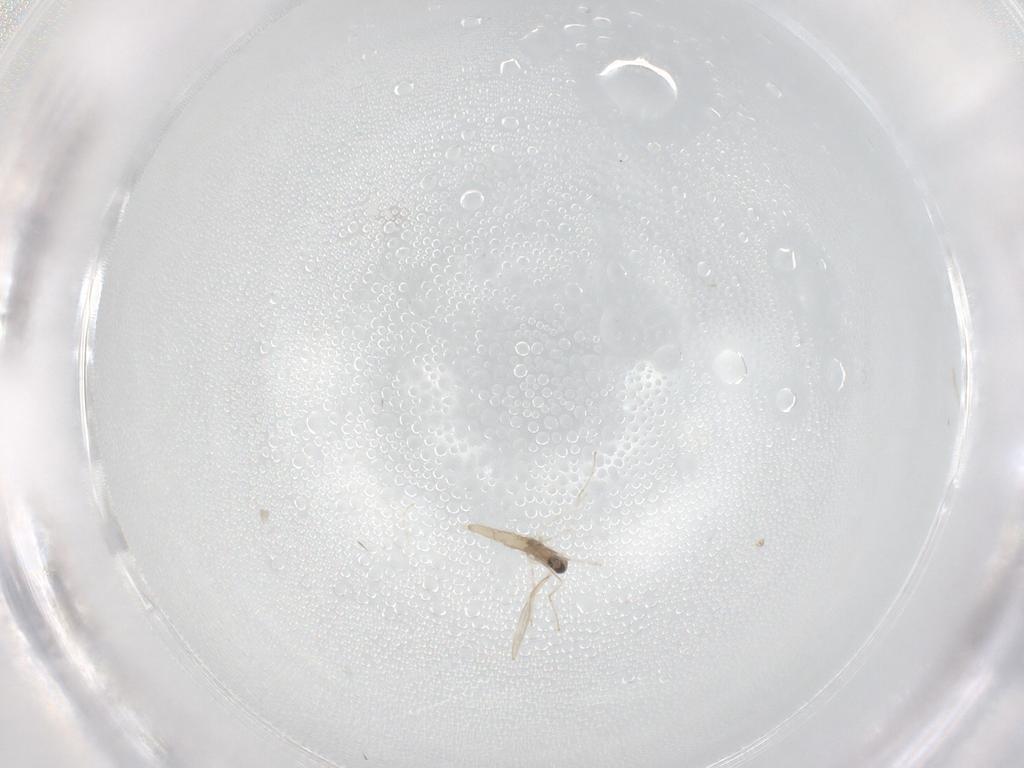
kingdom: Animalia
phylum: Arthropoda
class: Insecta
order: Diptera
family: Cecidomyiidae
